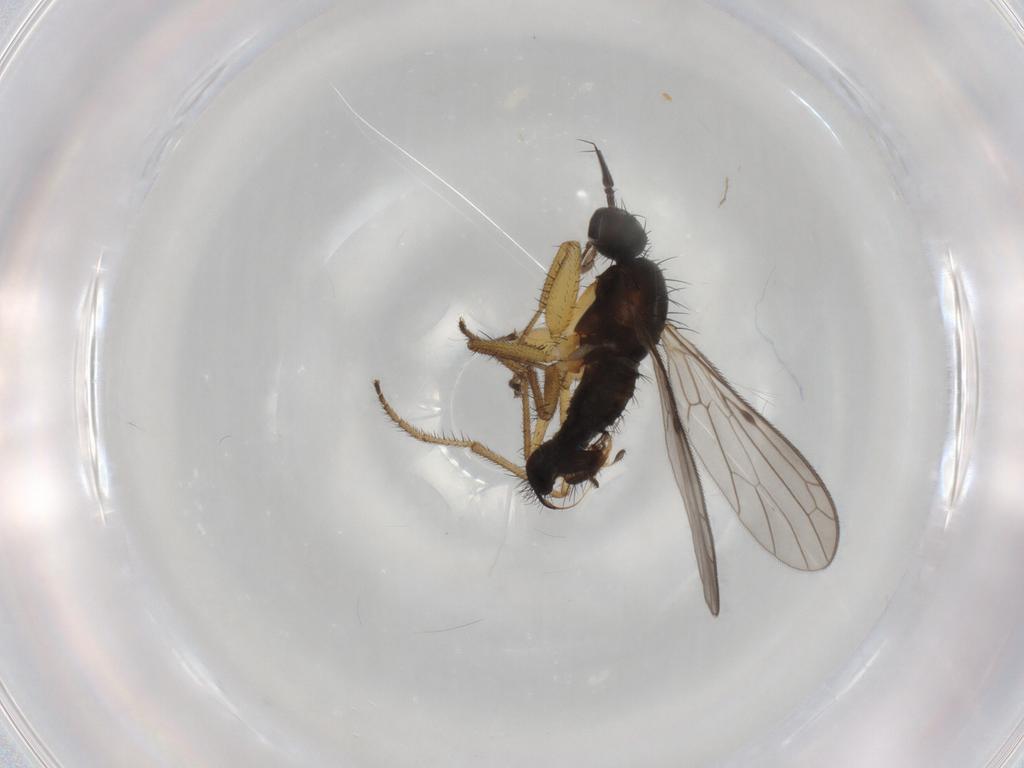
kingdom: Animalia
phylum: Arthropoda
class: Insecta
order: Diptera
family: Chironomidae
